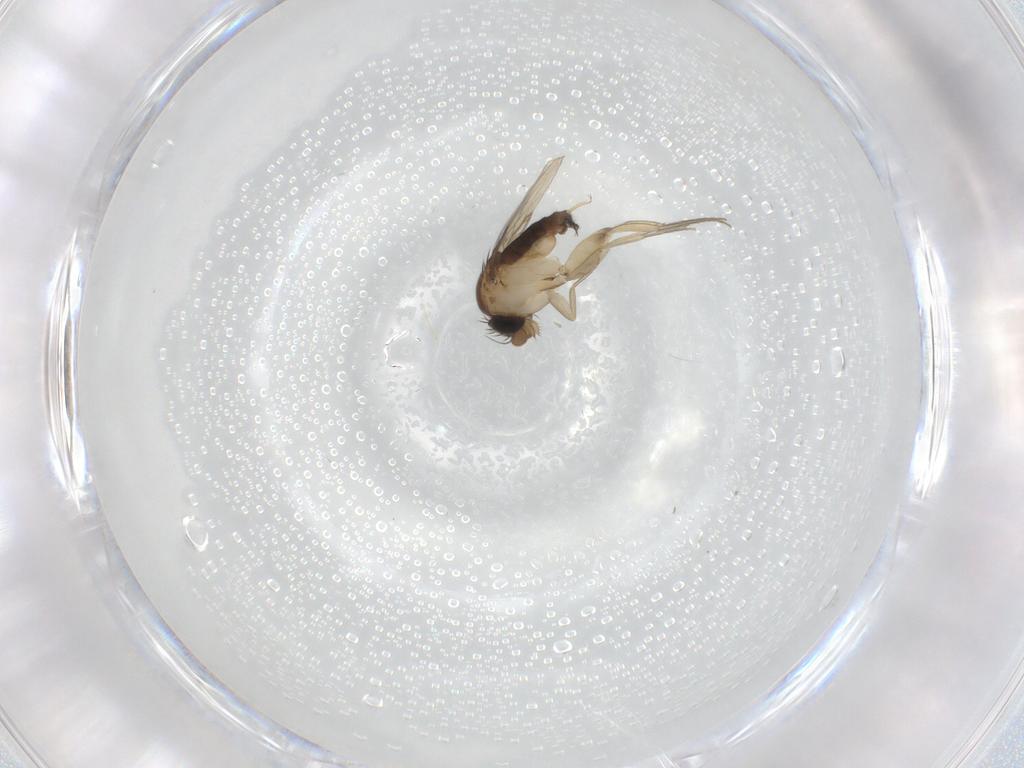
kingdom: Animalia
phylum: Arthropoda
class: Insecta
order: Diptera
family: Phoridae
